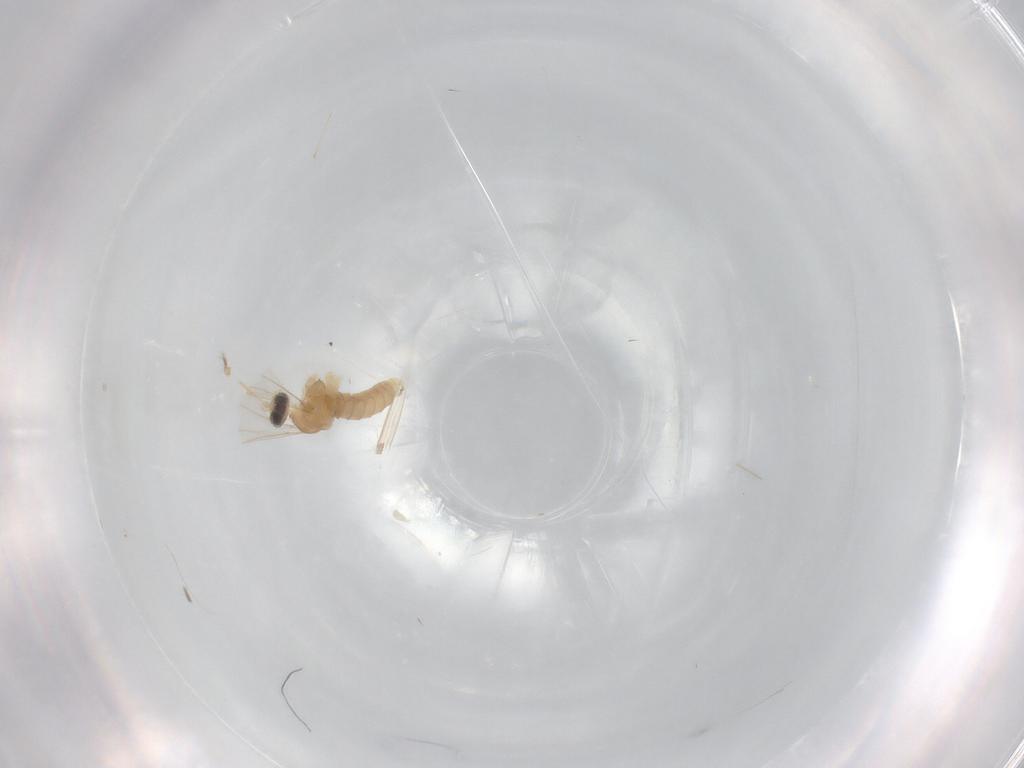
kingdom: Animalia
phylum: Arthropoda
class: Insecta
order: Diptera
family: Cecidomyiidae
